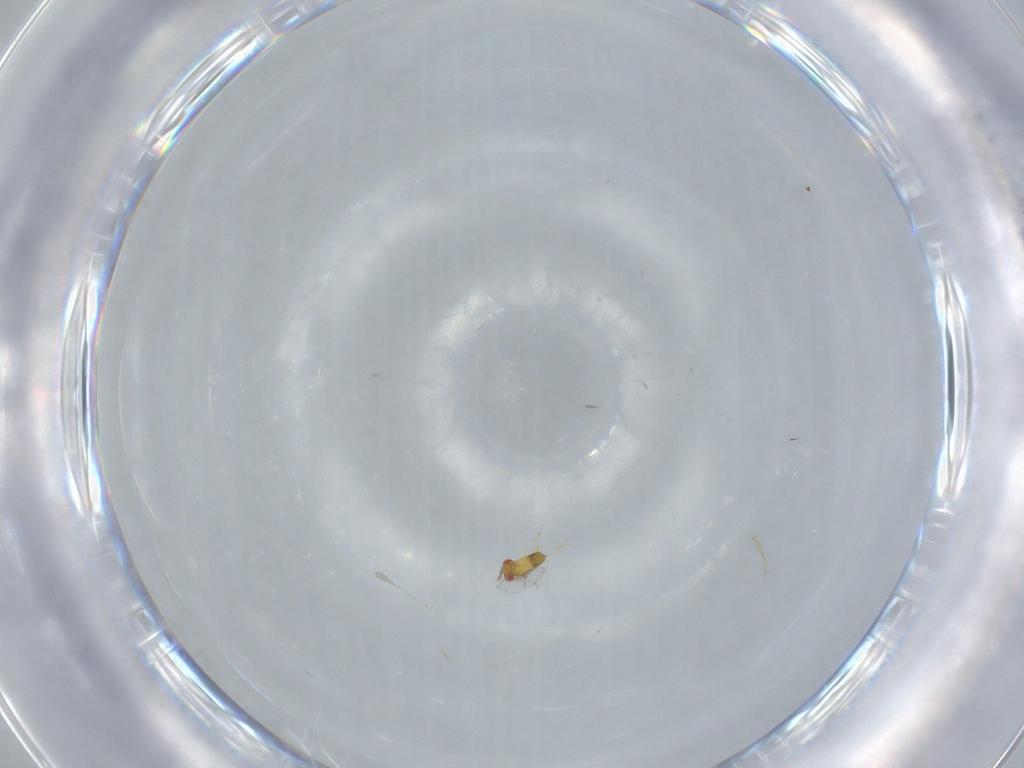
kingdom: Animalia
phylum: Arthropoda
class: Insecta
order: Hymenoptera
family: Trichogrammatidae
